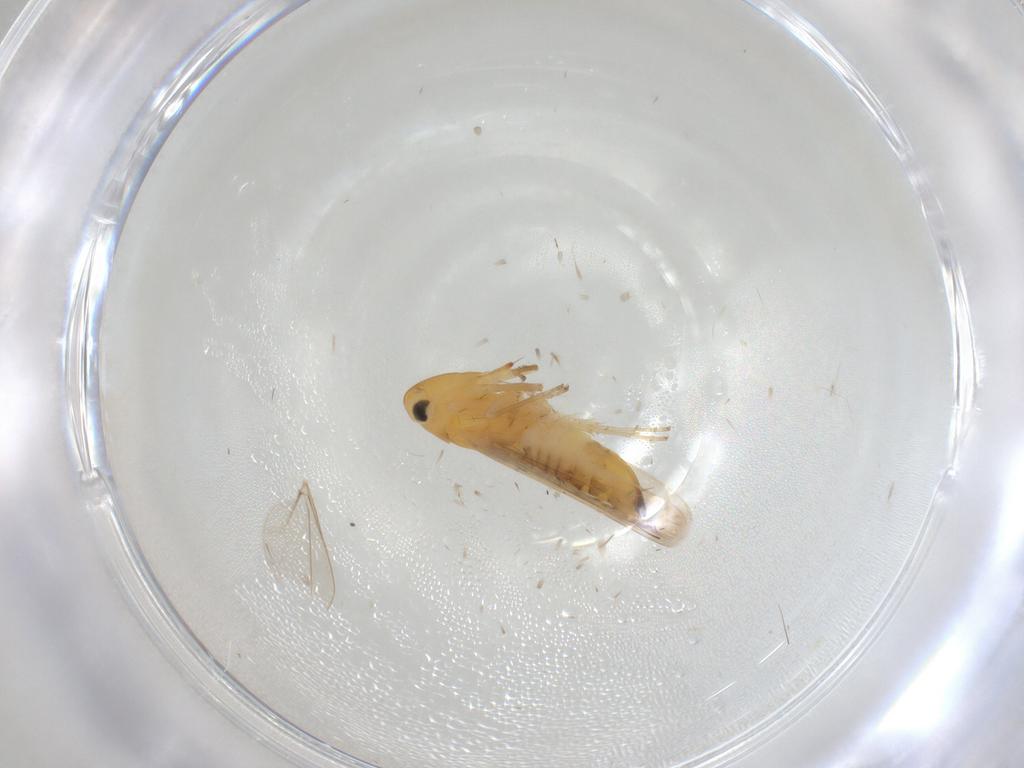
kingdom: Animalia
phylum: Arthropoda
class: Insecta
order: Hemiptera
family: Cicadellidae
